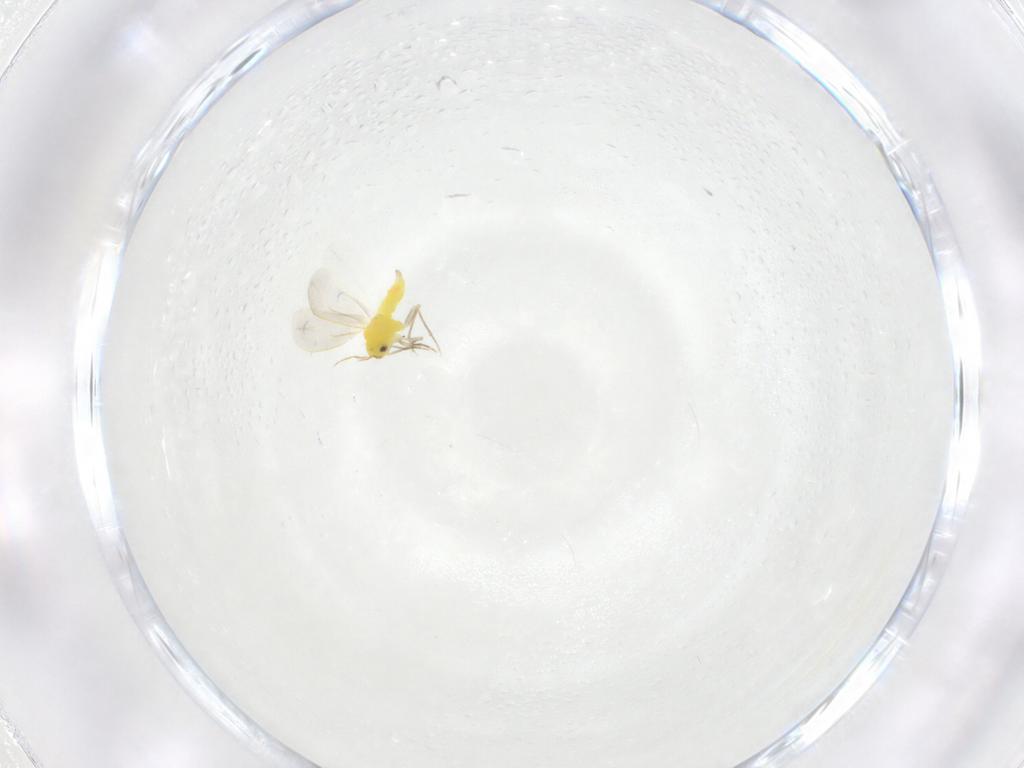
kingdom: Animalia
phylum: Arthropoda
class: Insecta
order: Hemiptera
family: Aleyrodidae
